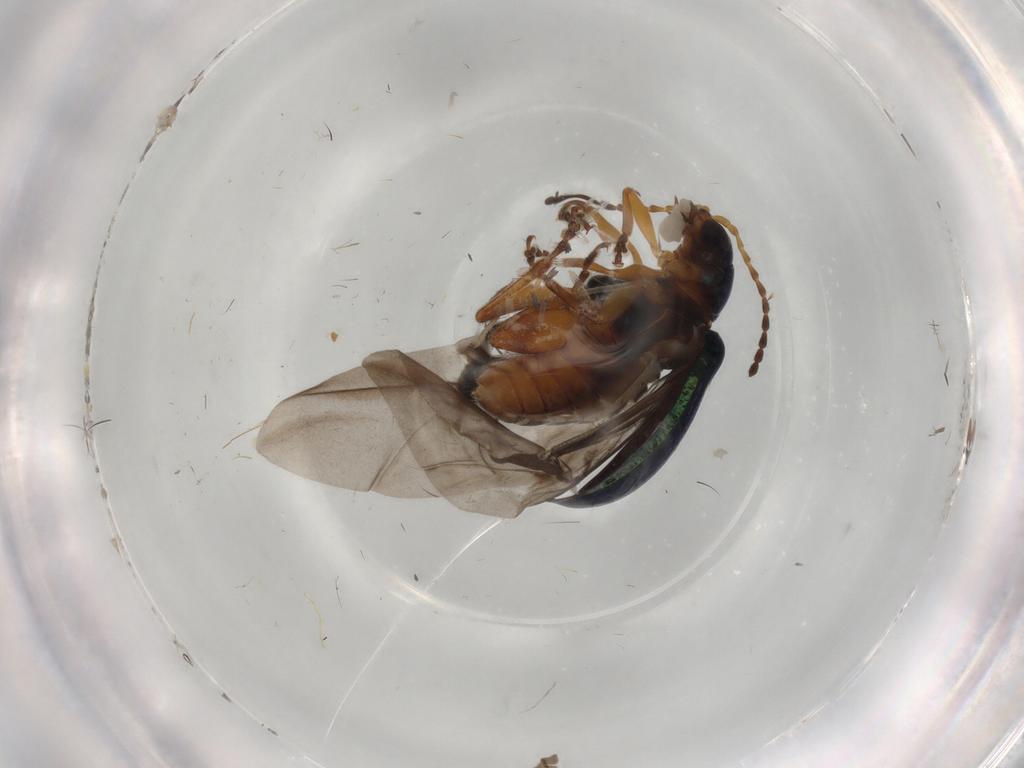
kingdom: Animalia
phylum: Arthropoda
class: Insecta
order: Coleoptera
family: Chrysomelidae
